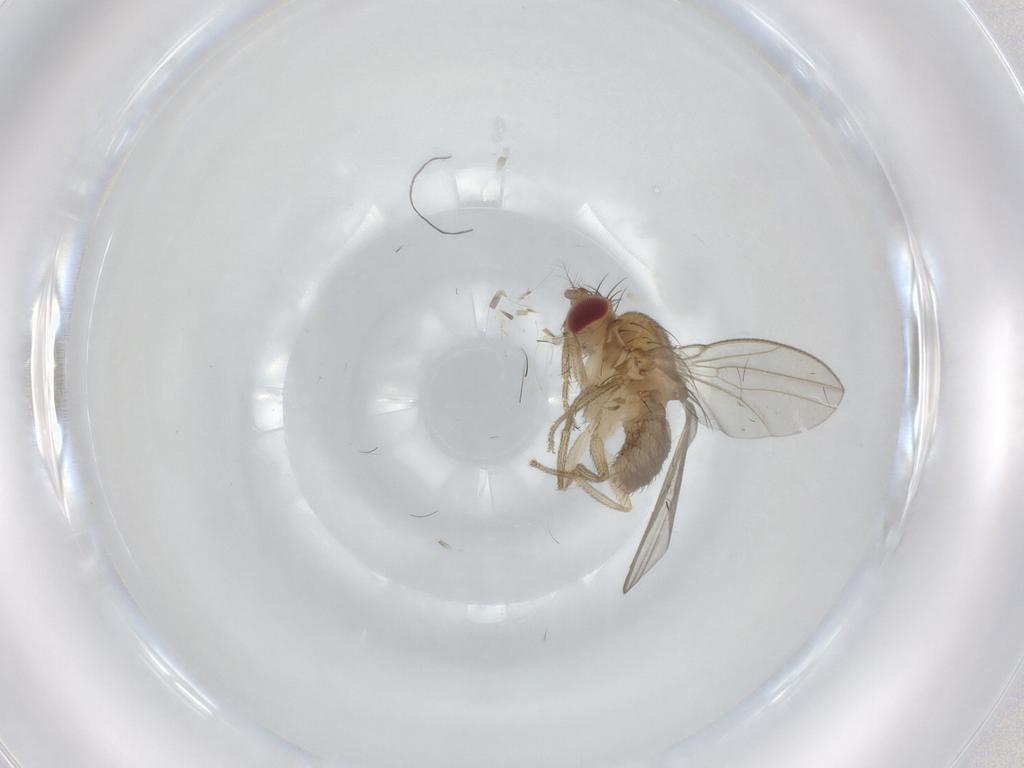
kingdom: Animalia
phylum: Arthropoda
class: Insecta
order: Diptera
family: Drosophilidae
